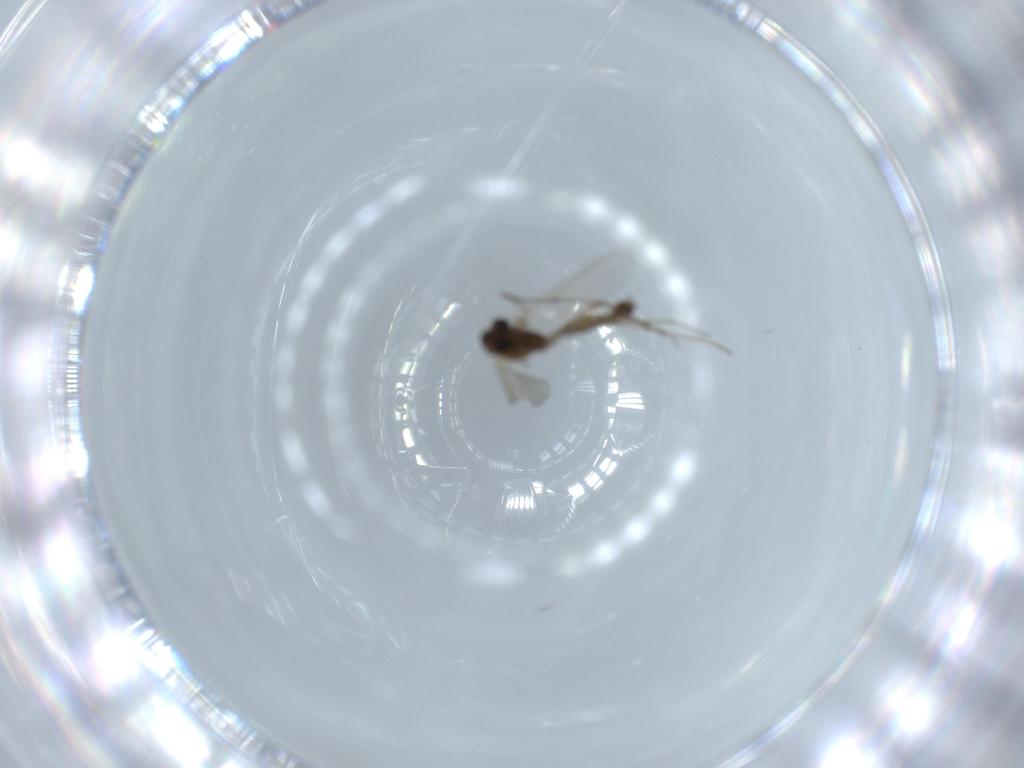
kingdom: Animalia
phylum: Arthropoda
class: Insecta
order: Diptera
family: Chironomidae
